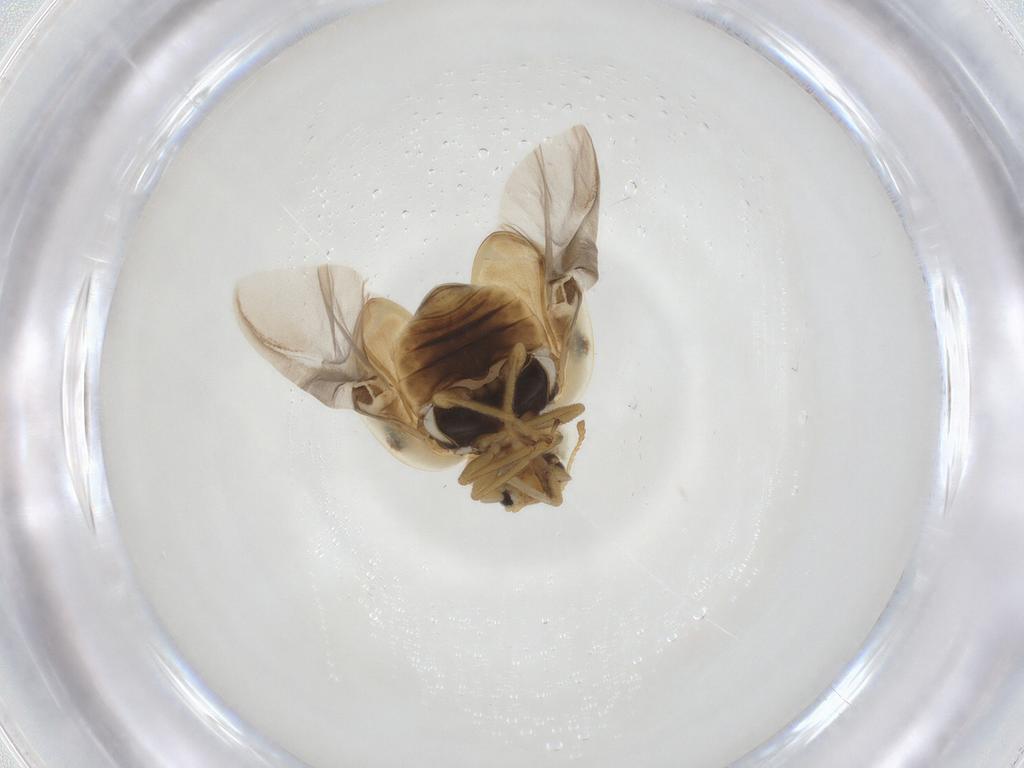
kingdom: Animalia
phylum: Arthropoda
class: Insecta
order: Coleoptera
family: Coccinellidae
